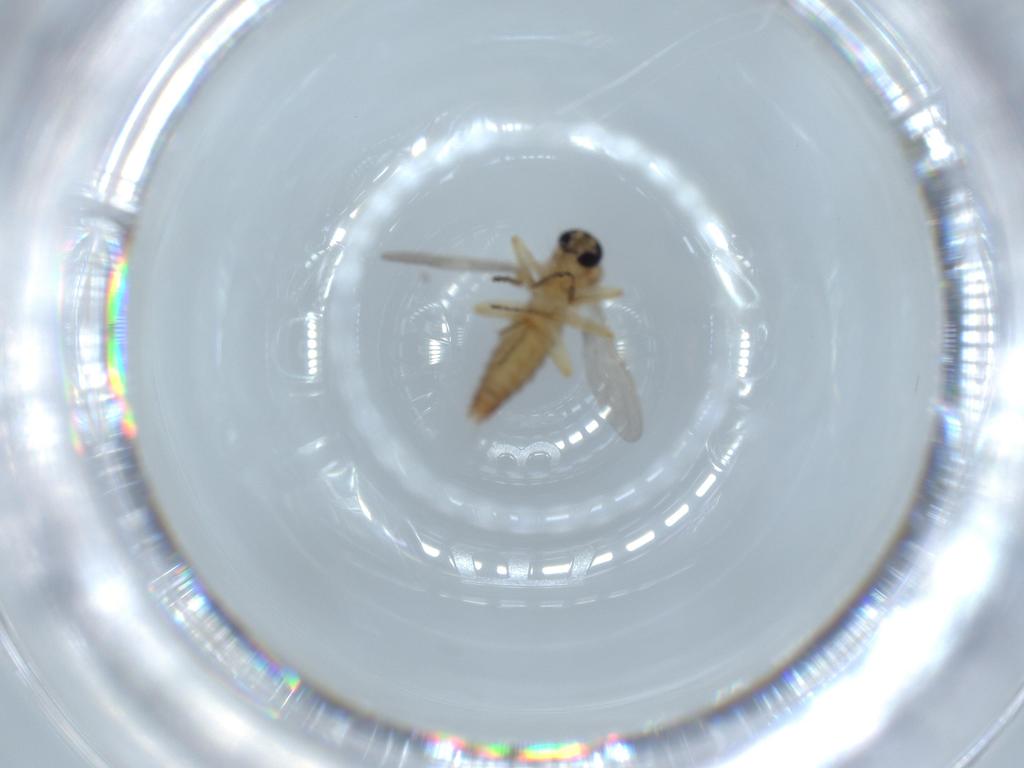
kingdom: Animalia
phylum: Arthropoda
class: Insecta
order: Diptera
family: Ceratopogonidae
